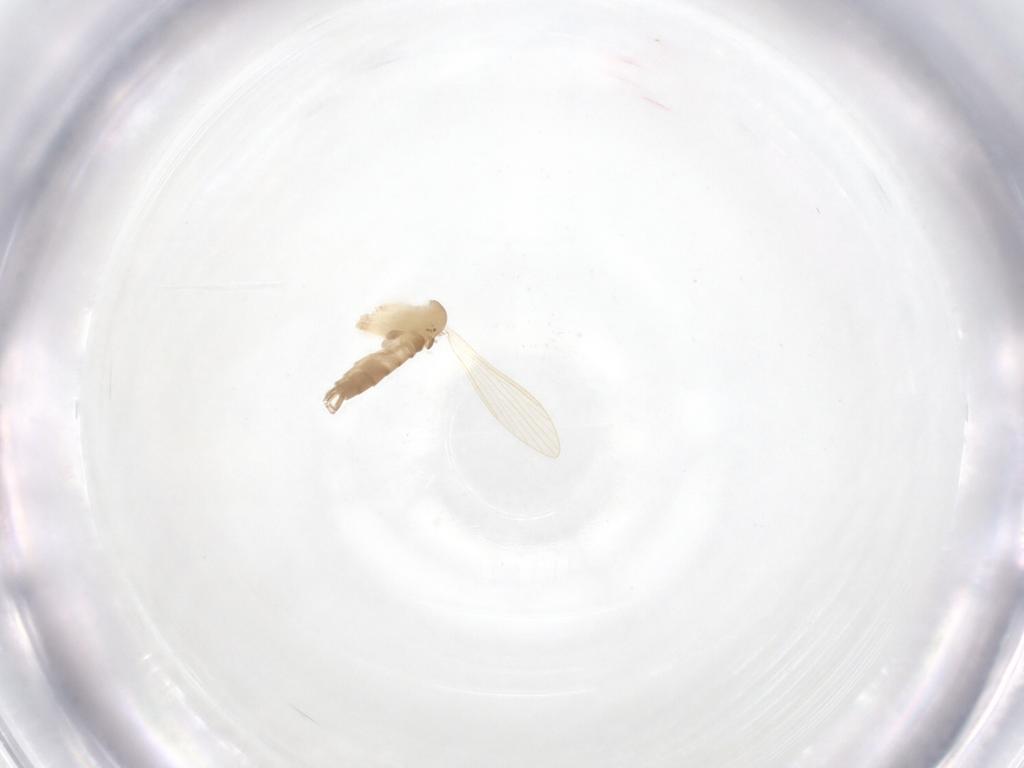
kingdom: Animalia
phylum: Arthropoda
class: Insecta
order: Diptera
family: Psychodidae
